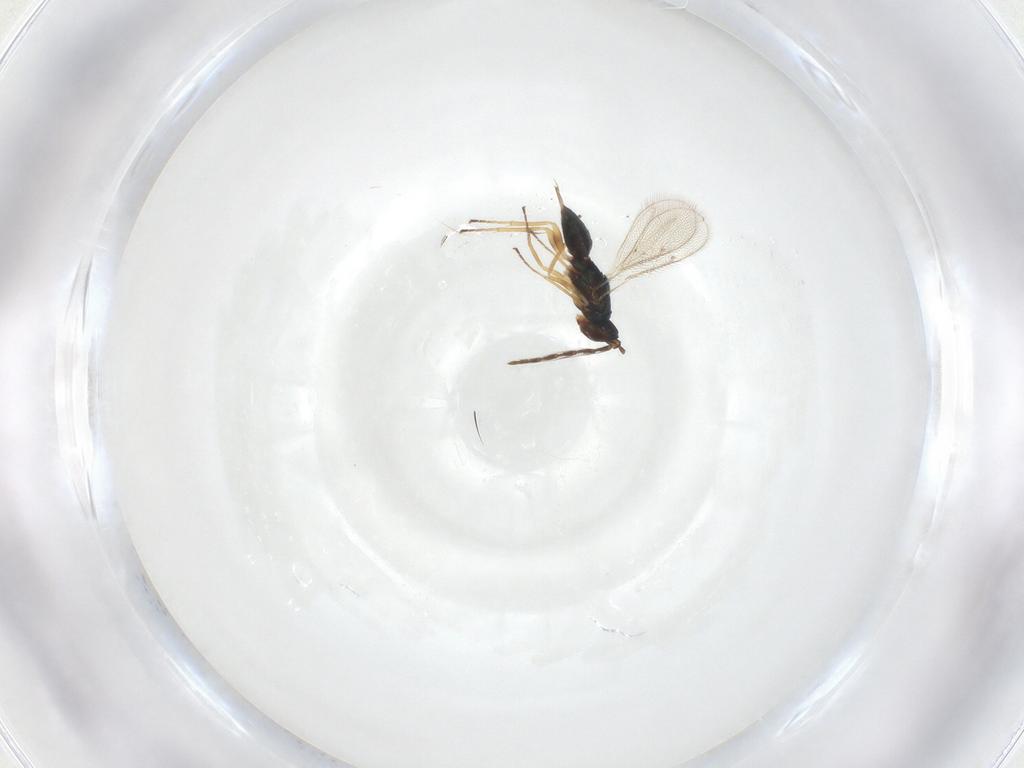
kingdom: Animalia
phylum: Arthropoda
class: Insecta
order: Hymenoptera
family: Eulophidae
